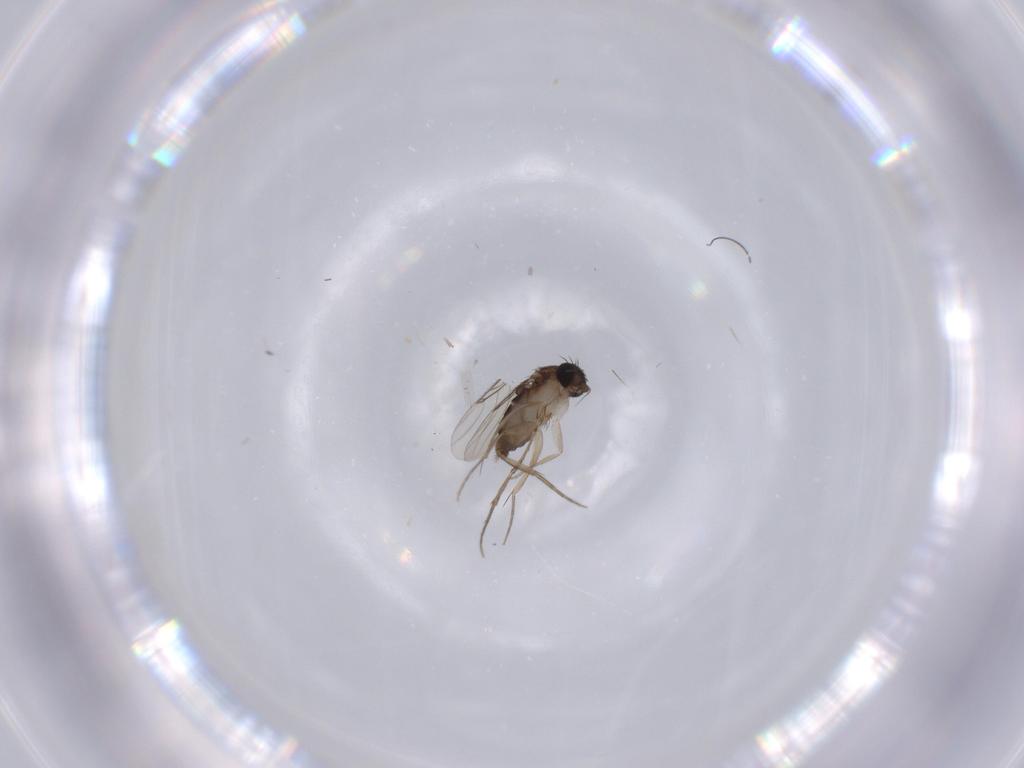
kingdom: Animalia
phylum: Arthropoda
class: Insecta
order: Diptera
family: Phoridae
